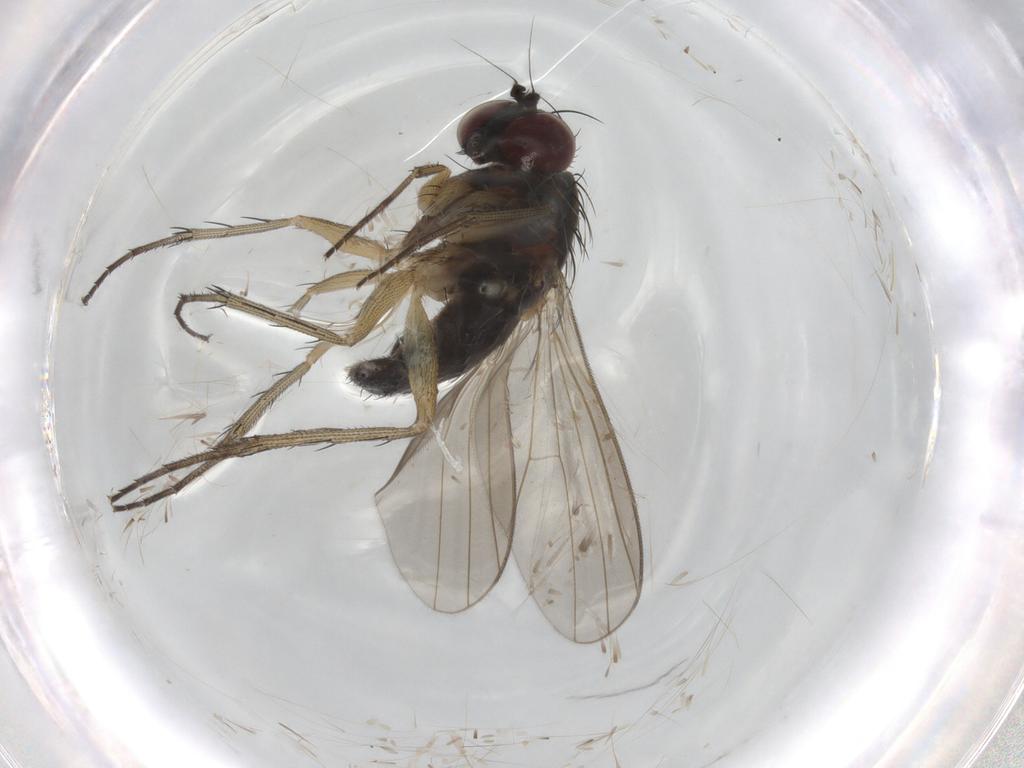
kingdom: Animalia
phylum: Arthropoda
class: Insecta
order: Diptera
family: Dolichopodidae
